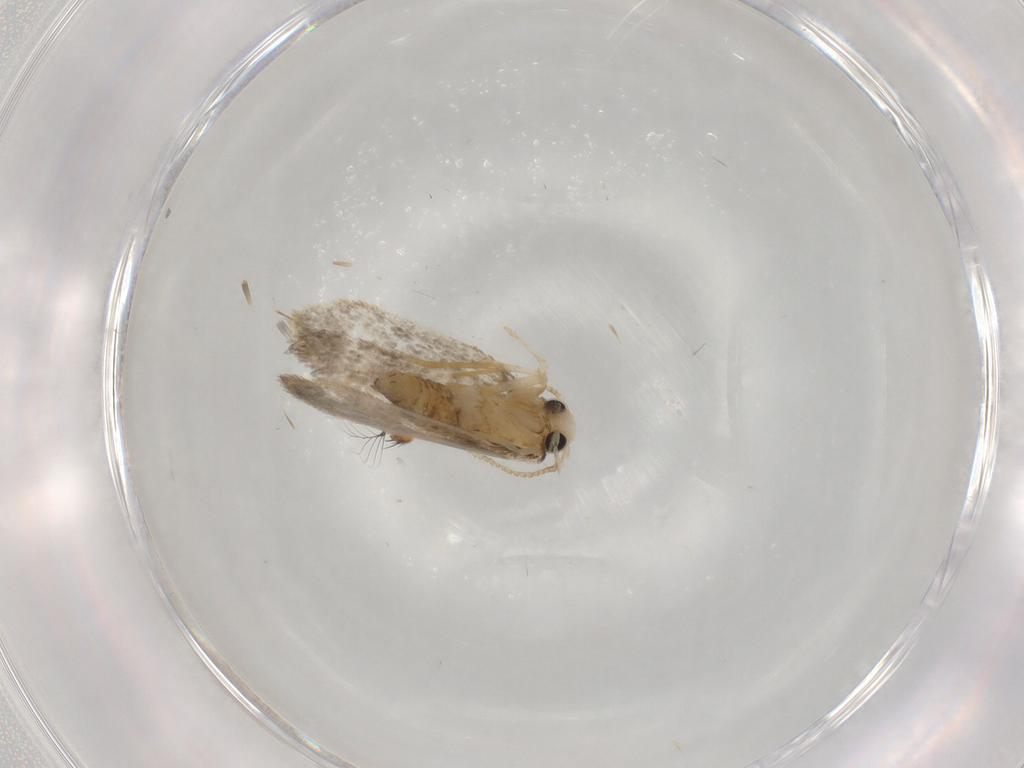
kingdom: Animalia
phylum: Arthropoda
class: Insecta
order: Lepidoptera
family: Psychidae
